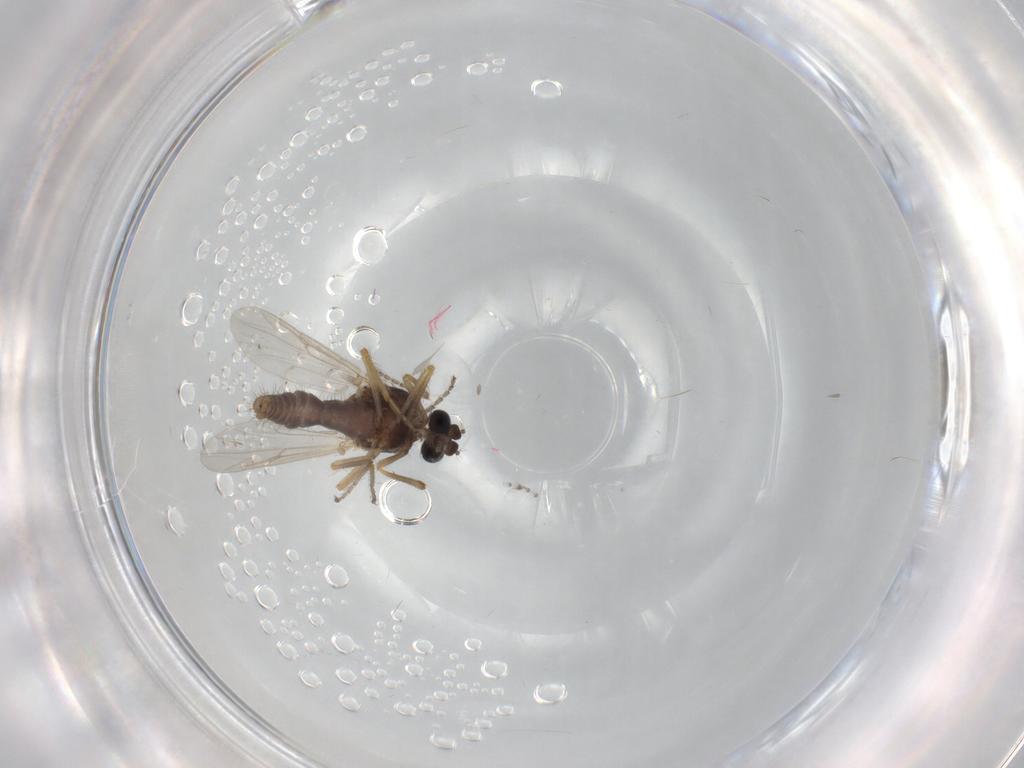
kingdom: Animalia
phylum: Arthropoda
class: Insecta
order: Diptera
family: Ceratopogonidae
